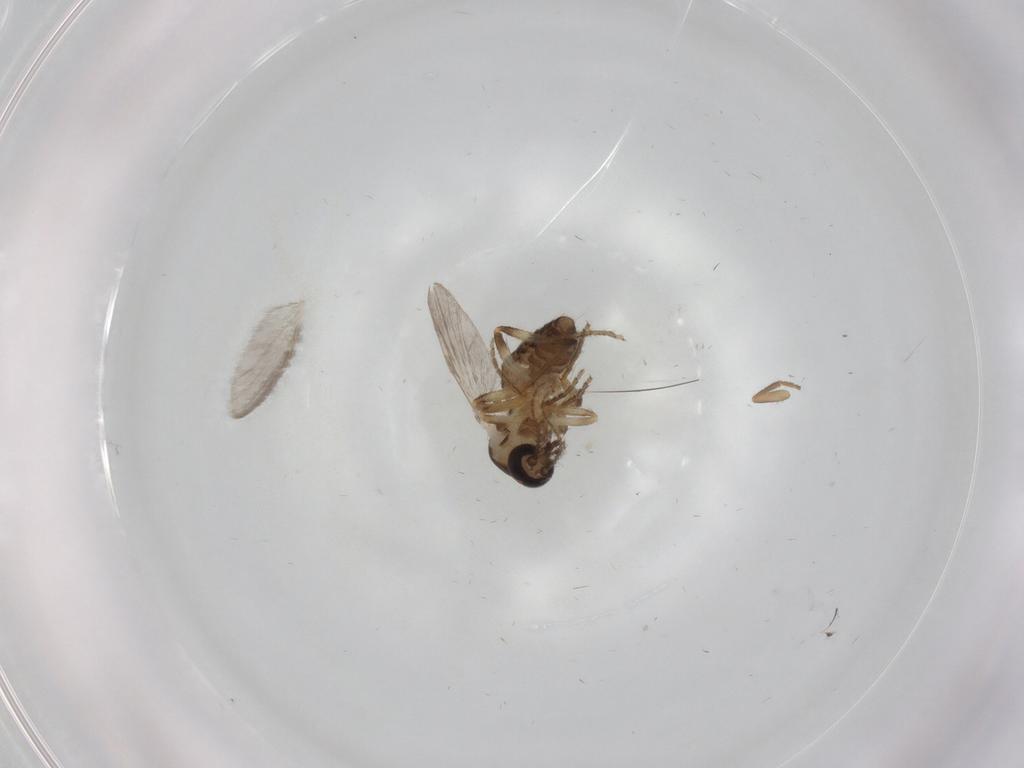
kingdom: Animalia
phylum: Arthropoda
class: Insecta
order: Diptera
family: Ceratopogonidae
